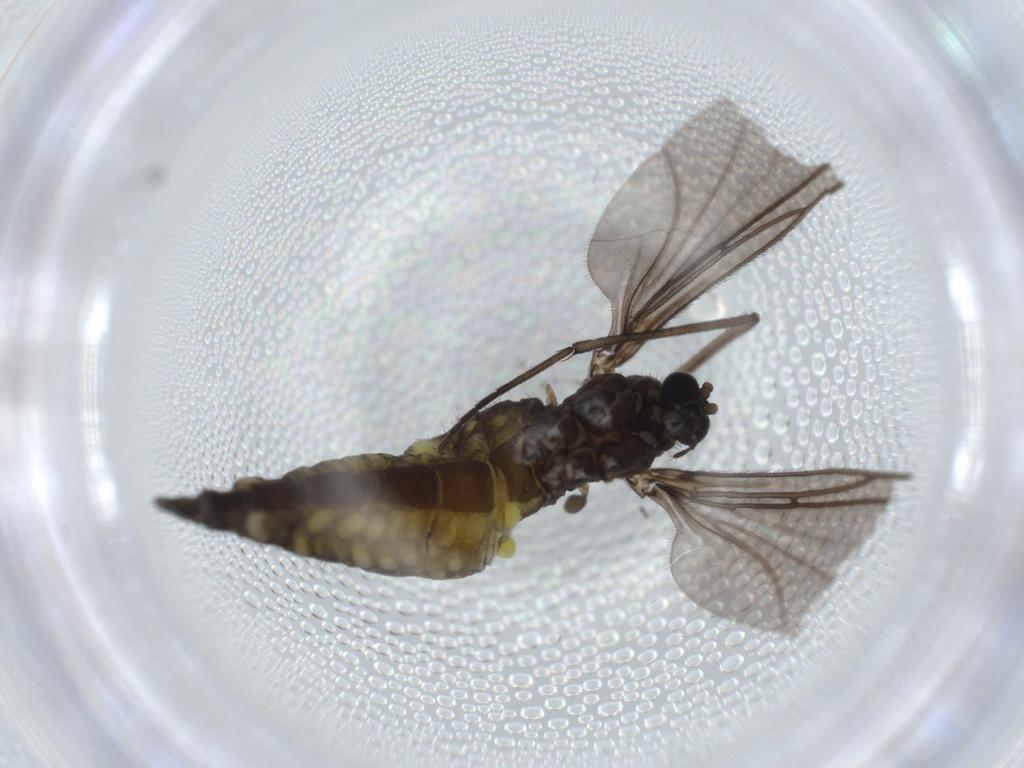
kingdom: Animalia
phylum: Arthropoda
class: Insecta
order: Diptera
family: Sciaridae
